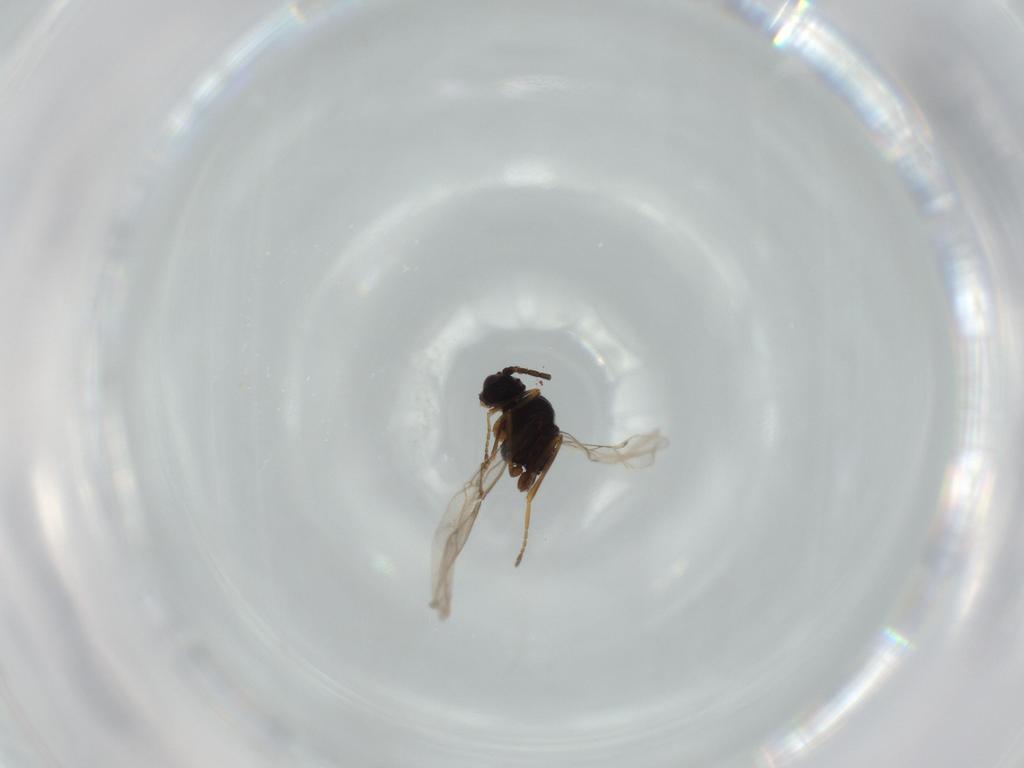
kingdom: Animalia
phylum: Arthropoda
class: Insecta
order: Hymenoptera
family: Braconidae
